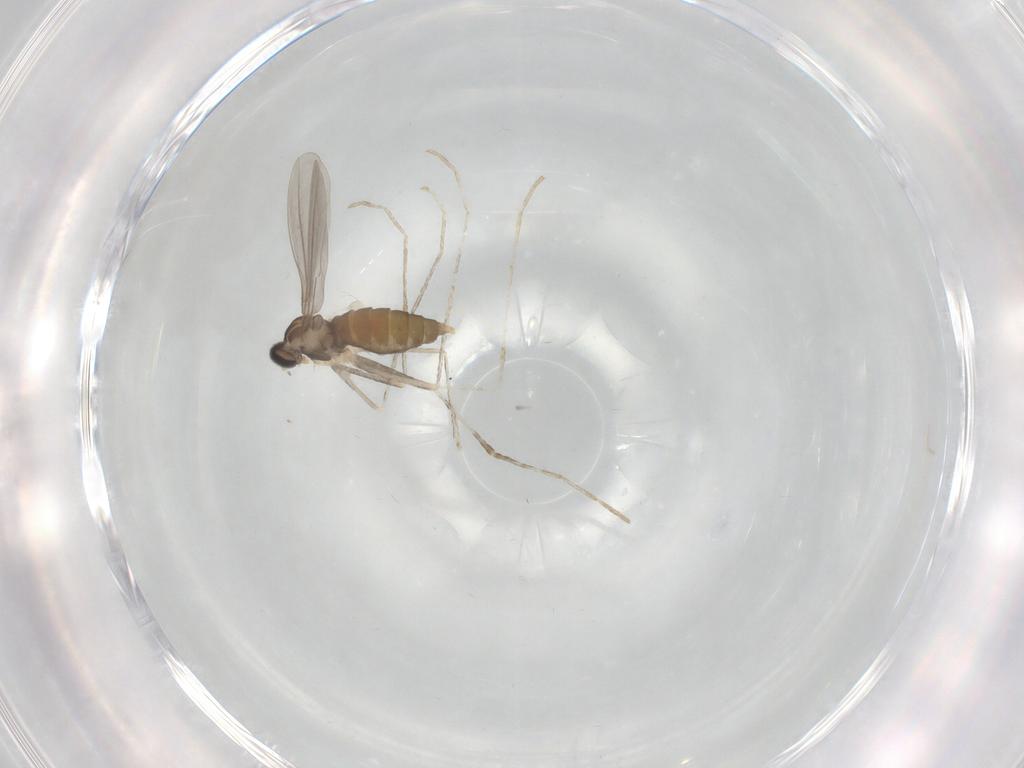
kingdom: Animalia
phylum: Arthropoda
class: Insecta
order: Diptera
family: Cecidomyiidae
